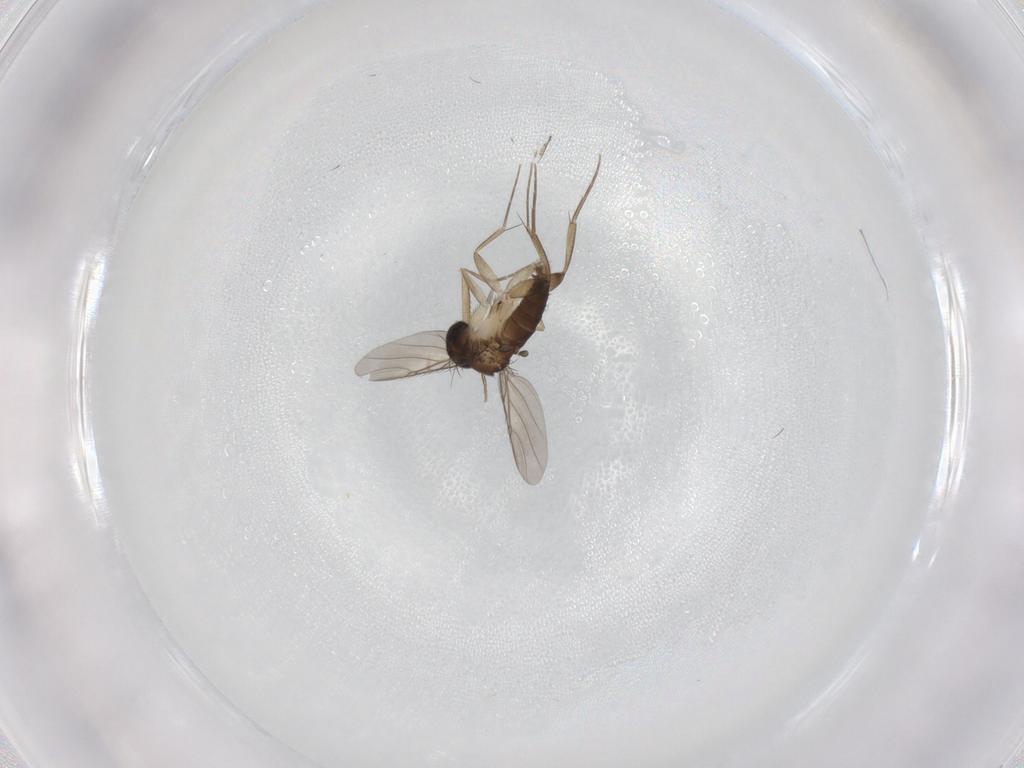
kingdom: Animalia
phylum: Arthropoda
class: Insecta
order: Diptera
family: Phoridae
